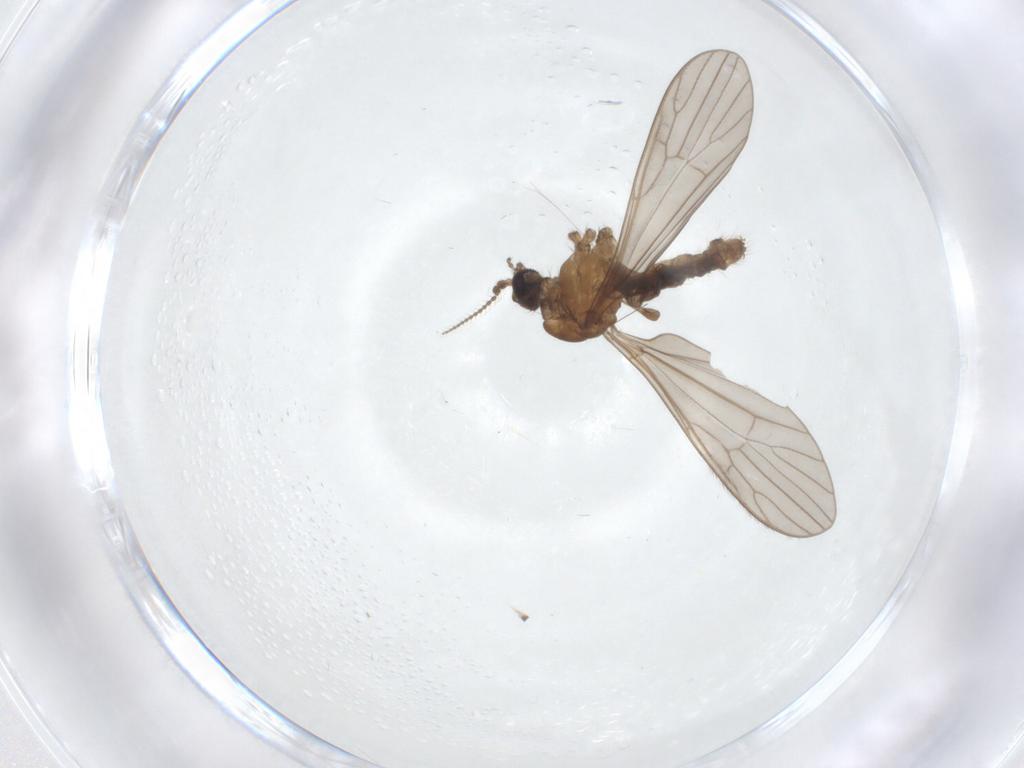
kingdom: Animalia
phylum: Arthropoda
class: Insecta
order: Diptera
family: Limoniidae
